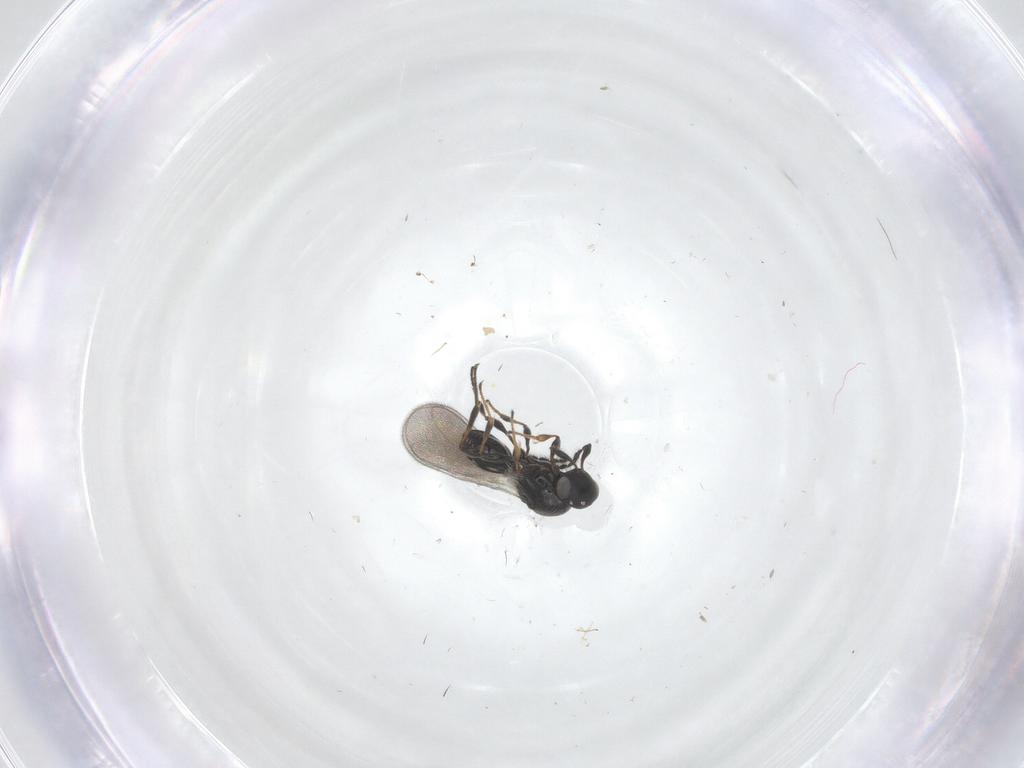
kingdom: Animalia
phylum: Arthropoda
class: Insecta
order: Hymenoptera
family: Platygastridae
